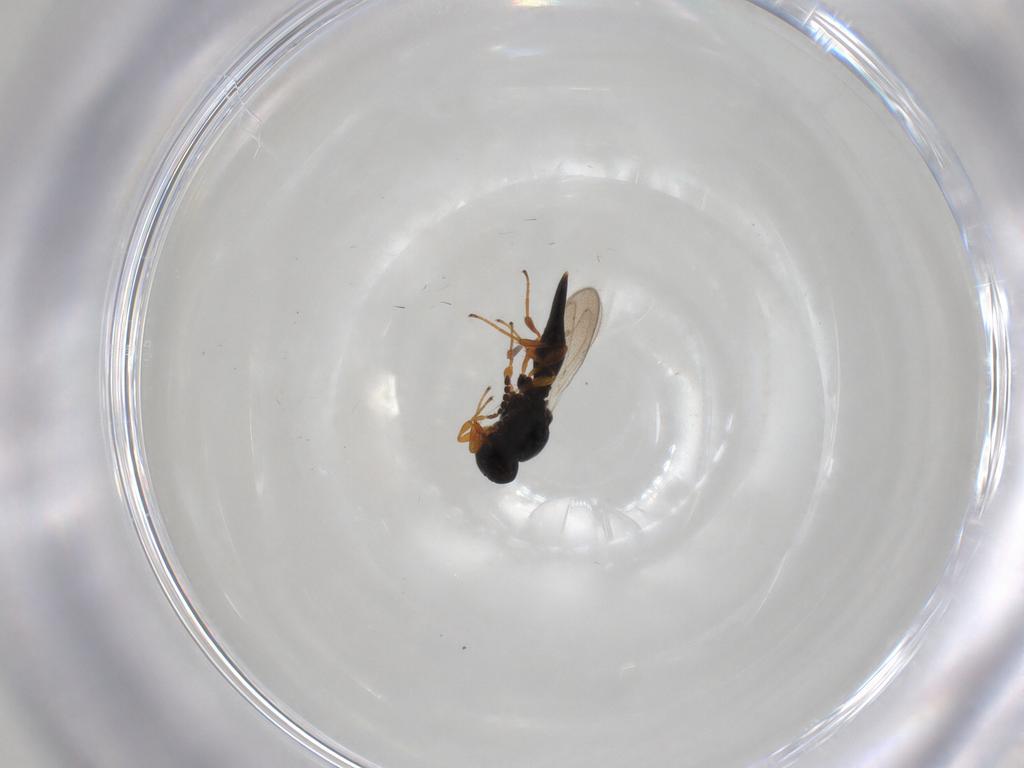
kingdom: Animalia
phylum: Arthropoda
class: Insecta
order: Hymenoptera
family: Platygastridae
